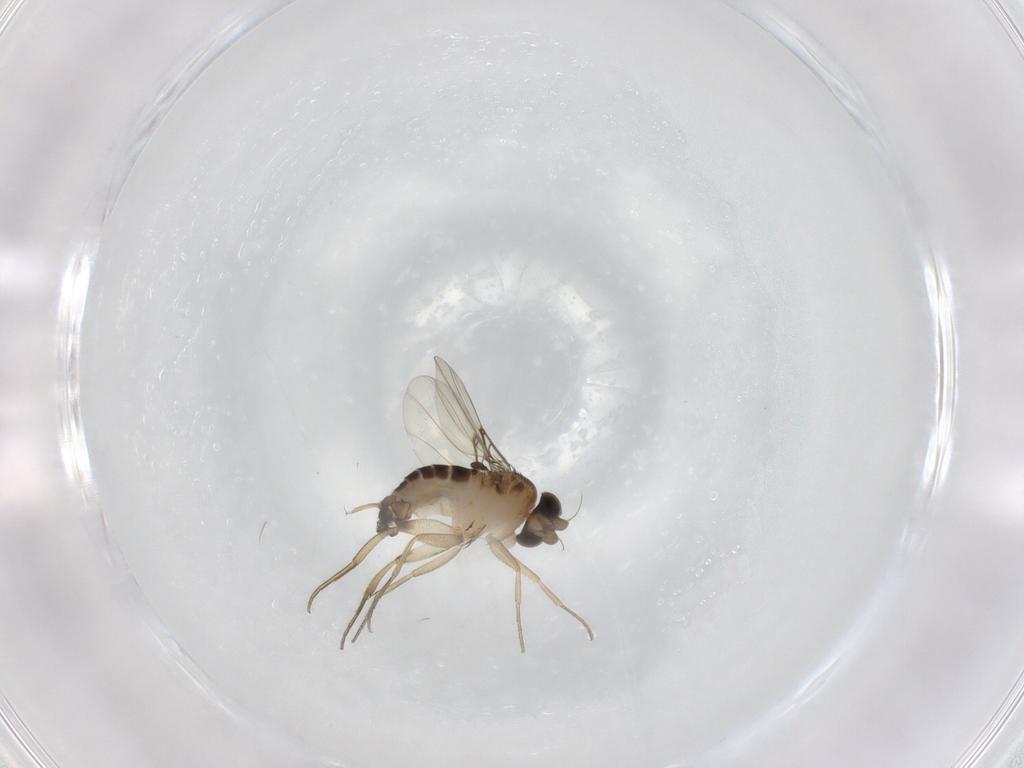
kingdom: Animalia
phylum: Arthropoda
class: Insecta
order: Diptera
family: Phoridae
